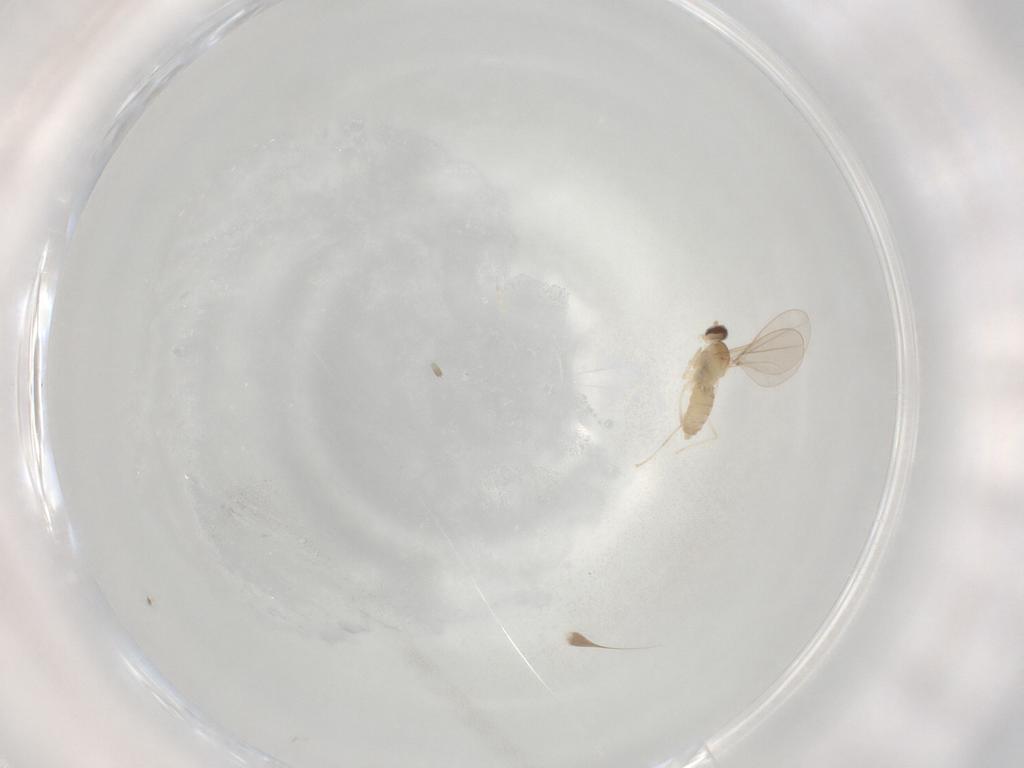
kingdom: Animalia
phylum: Arthropoda
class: Insecta
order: Diptera
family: Cecidomyiidae
